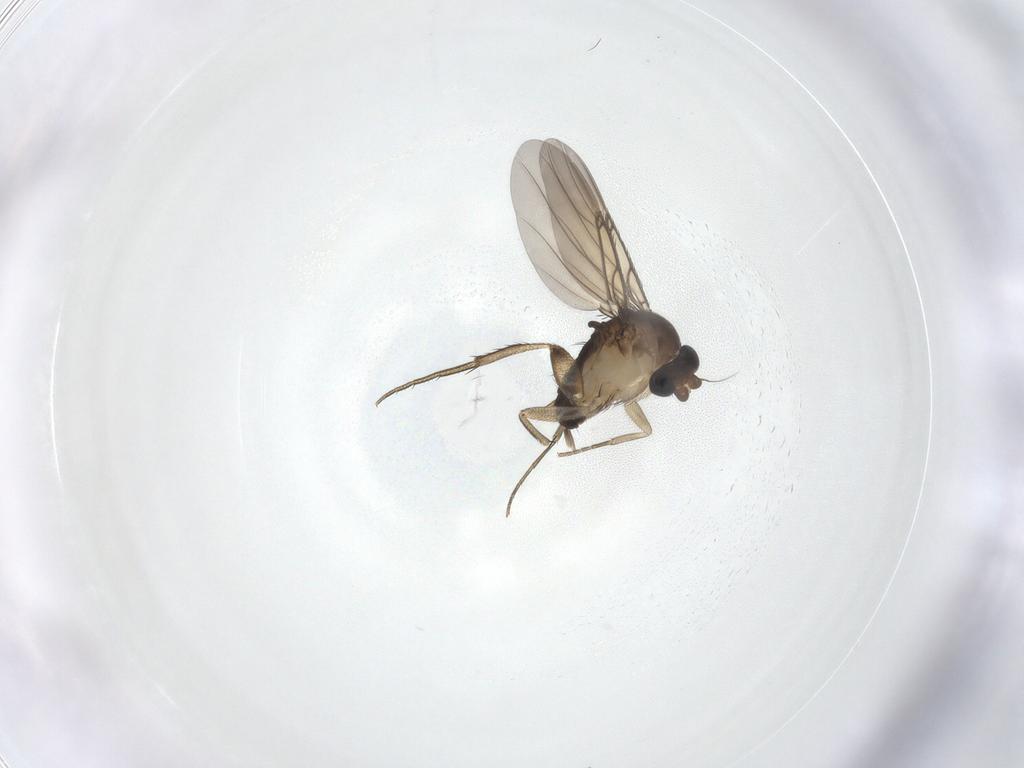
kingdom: Animalia
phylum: Arthropoda
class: Insecta
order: Diptera
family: Cecidomyiidae
